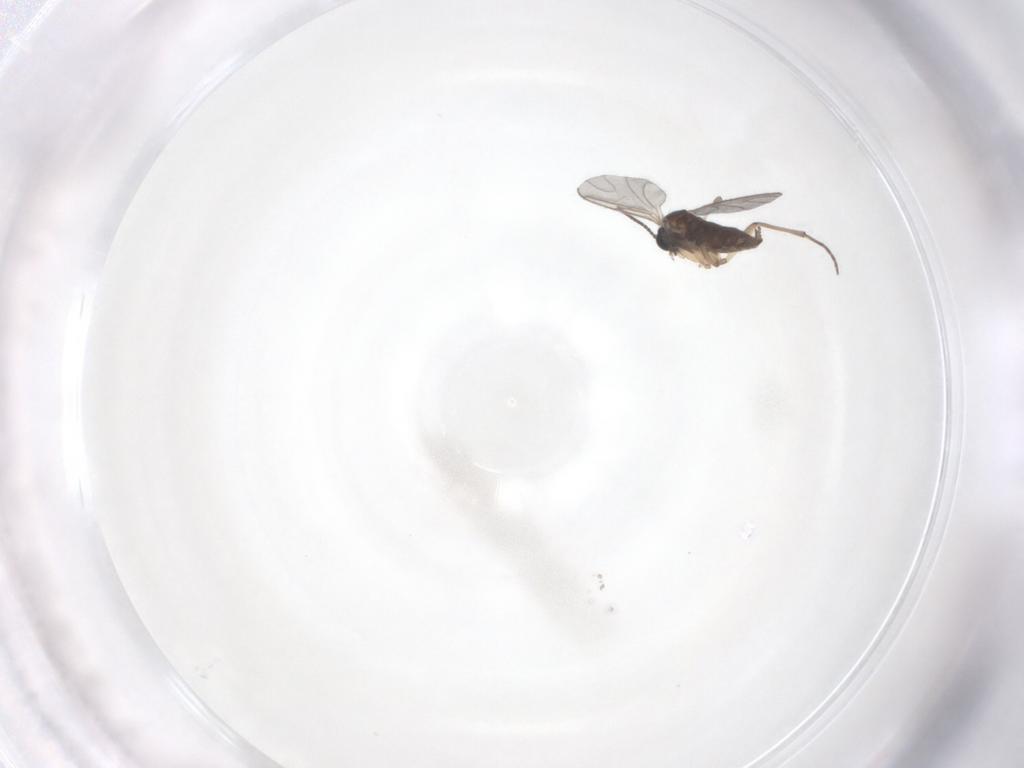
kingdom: Animalia
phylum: Arthropoda
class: Insecta
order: Diptera
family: Sciaridae
